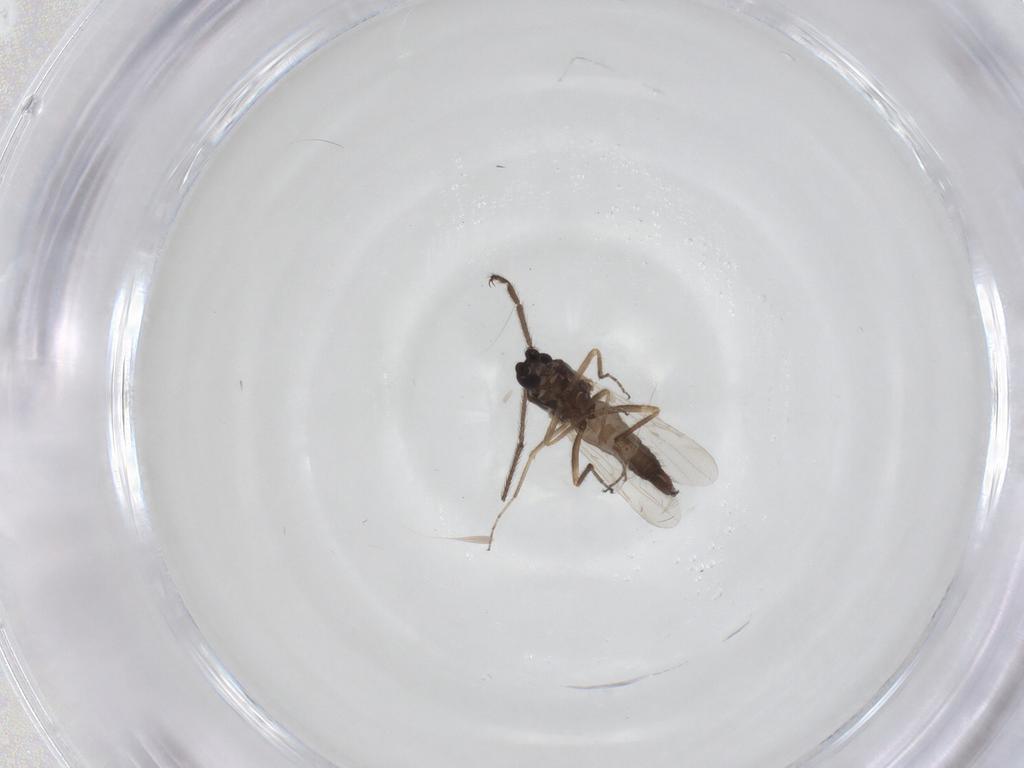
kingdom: Animalia
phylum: Arthropoda
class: Insecta
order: Diptera
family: Ceratopogonidae
